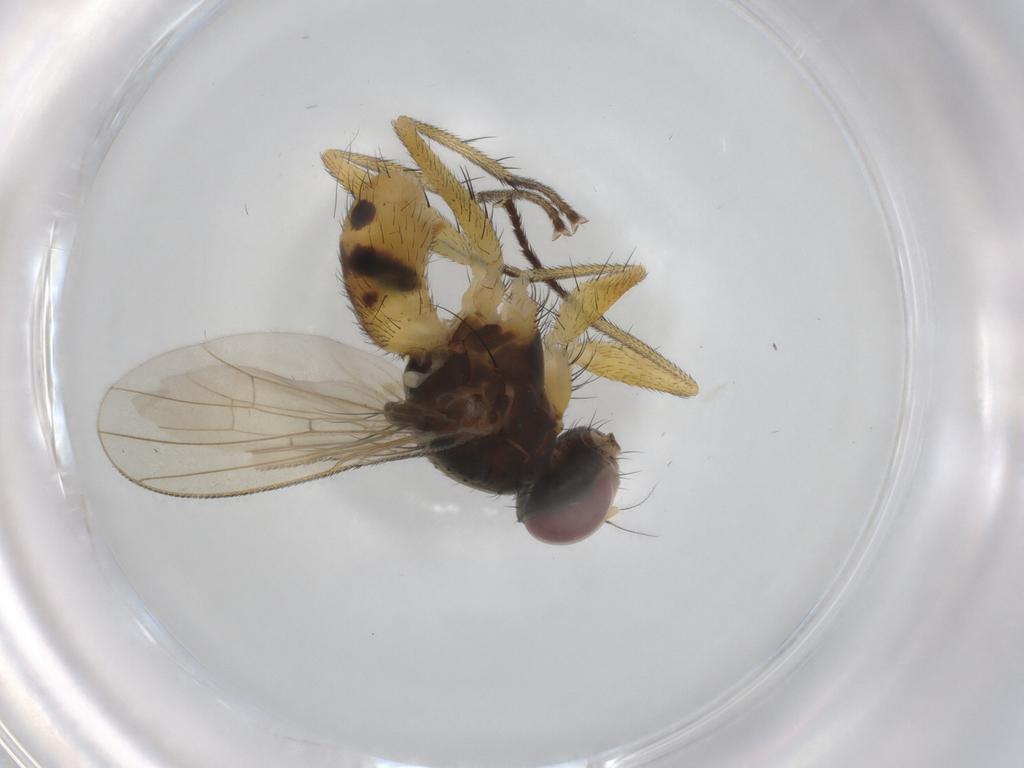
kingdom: Animalia
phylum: Arthropoda
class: Insecta
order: Diptera
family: Muscidae
